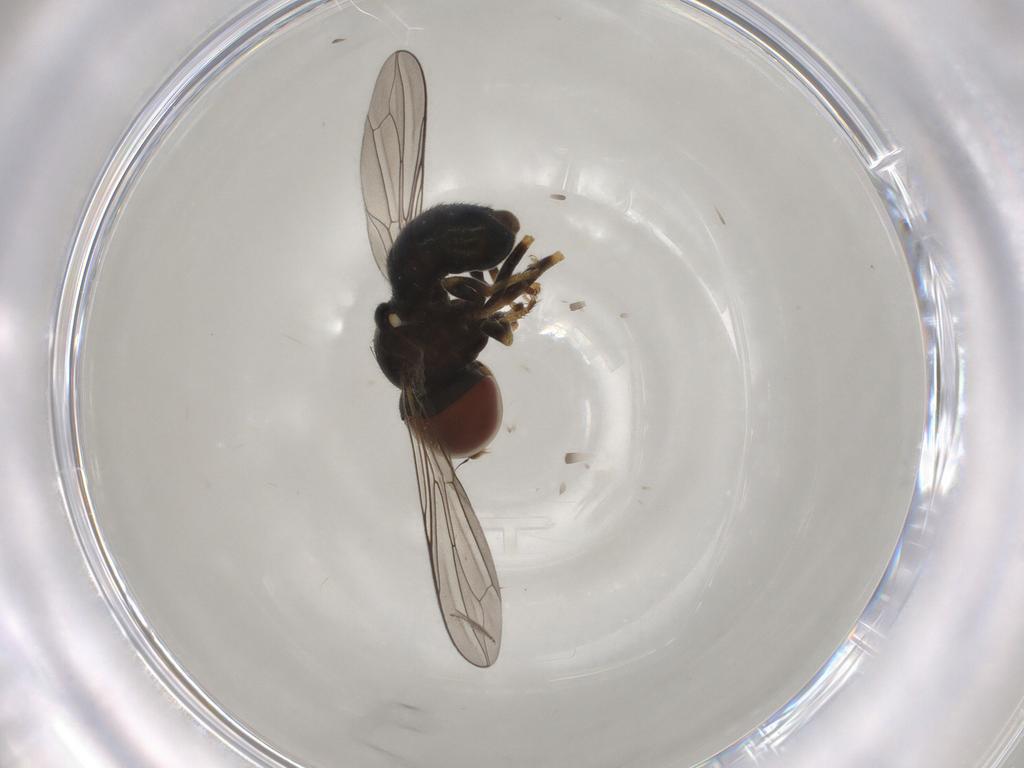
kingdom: Animalia
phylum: Arthropoda
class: Insecta
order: Diptera
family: Pipunculidae
